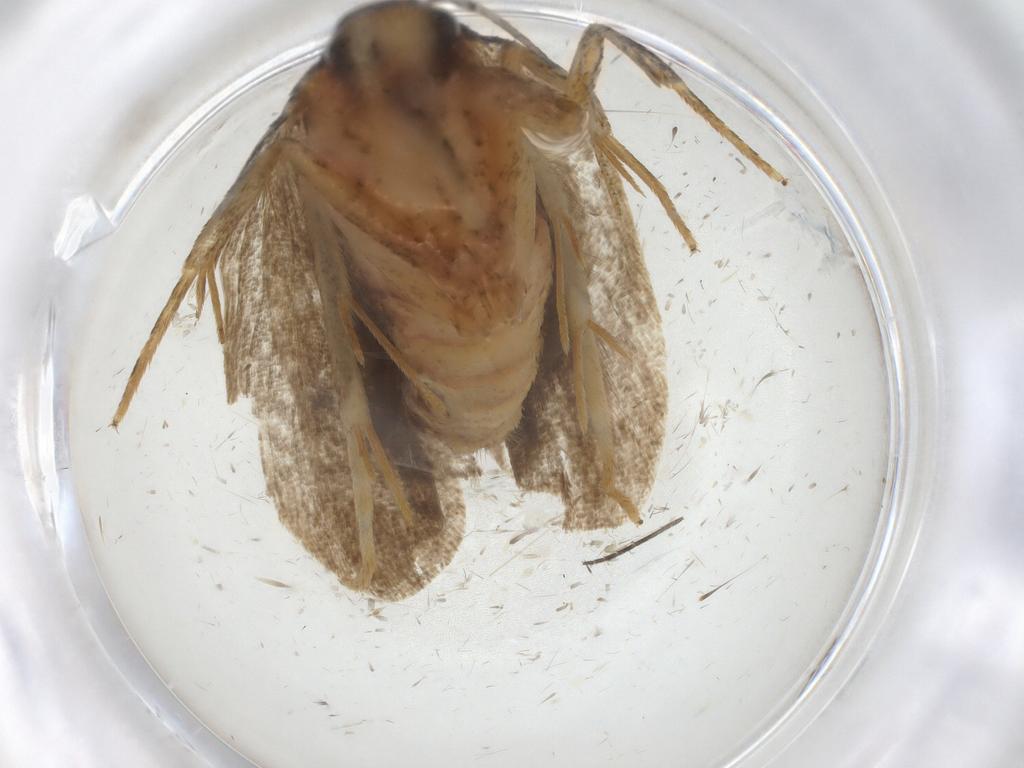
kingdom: Animalia
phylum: Arthropoda
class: Insecta
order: Lepidoptera
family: Autostichidae
